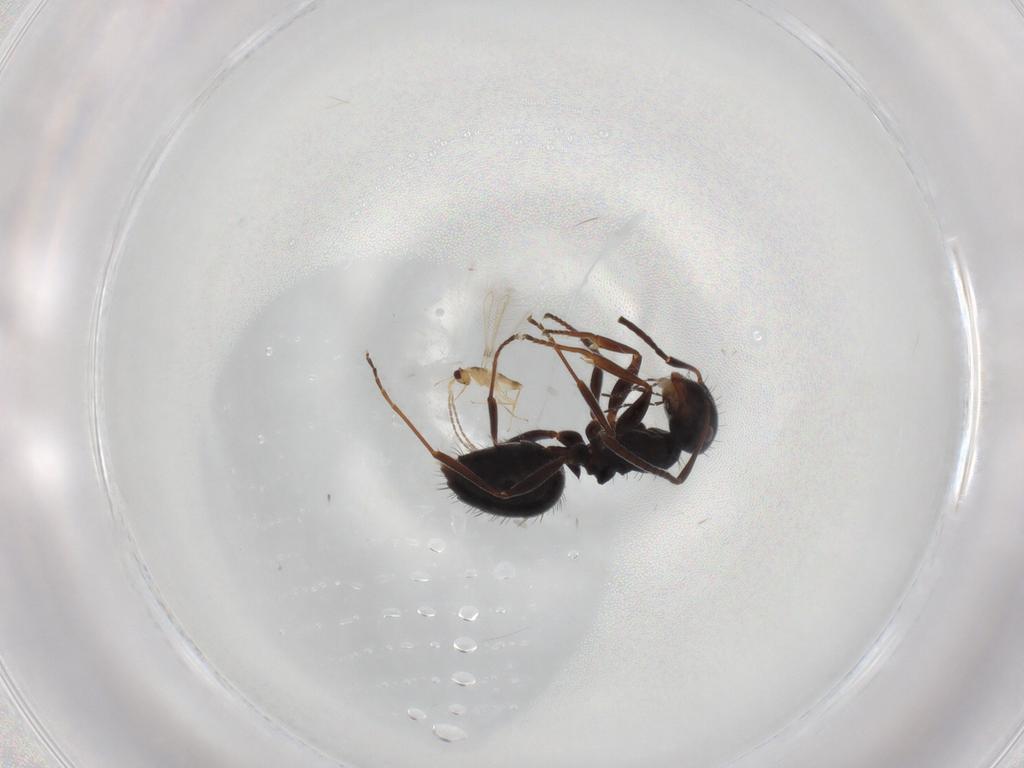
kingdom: Animalia
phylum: Arthropoda
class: Insecta
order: Hymenoptera
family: Formicidae
